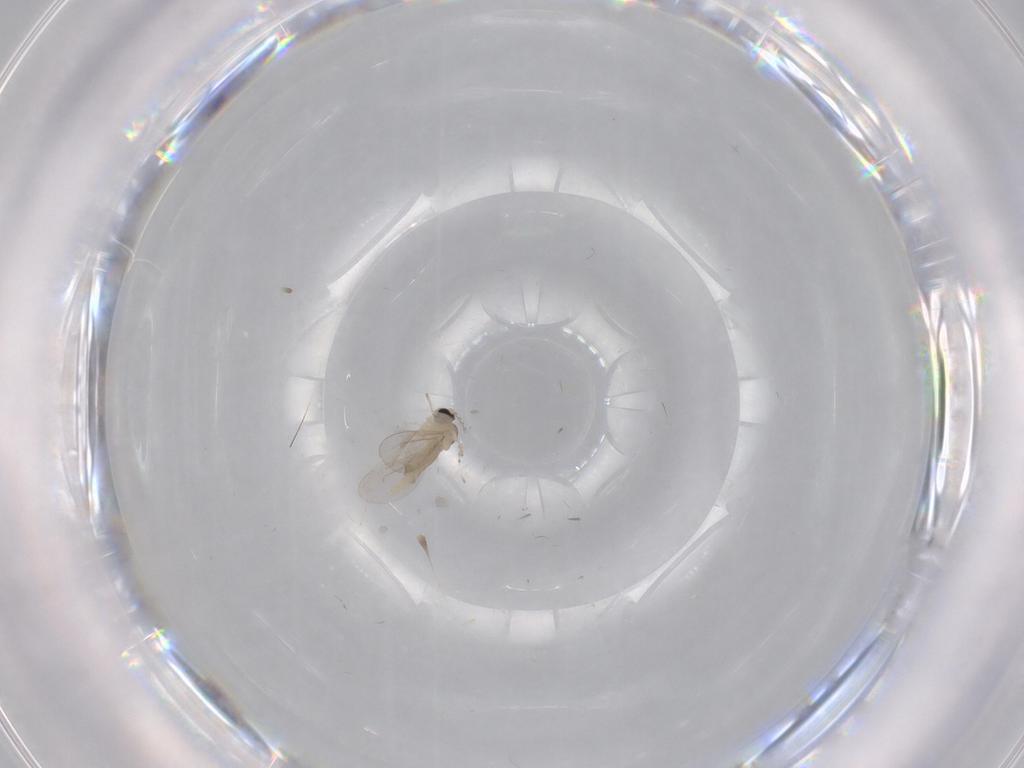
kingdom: Animalia
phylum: Arthropoda
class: Insecta
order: Diptera
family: Cecidomyiidae
